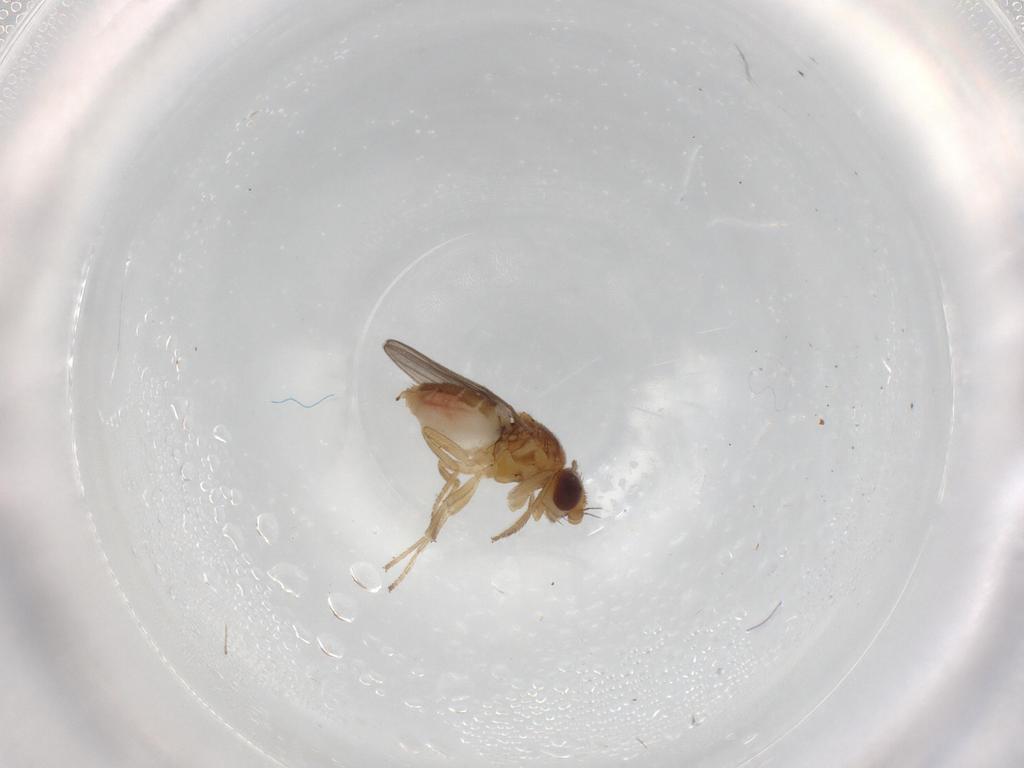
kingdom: Animalia
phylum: Arthropoda
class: Insecta
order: Diptera
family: Chloropidae
